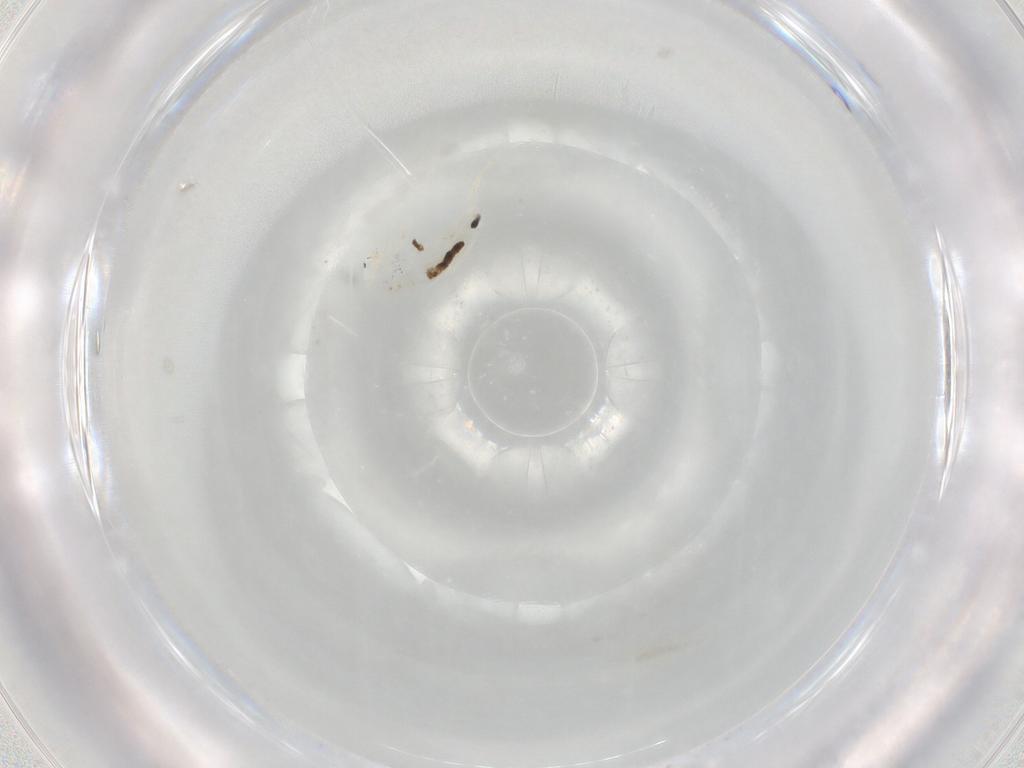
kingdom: Animalia
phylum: Arthropoda
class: Collembola
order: Entomobryomorpha
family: Entomobryidae
